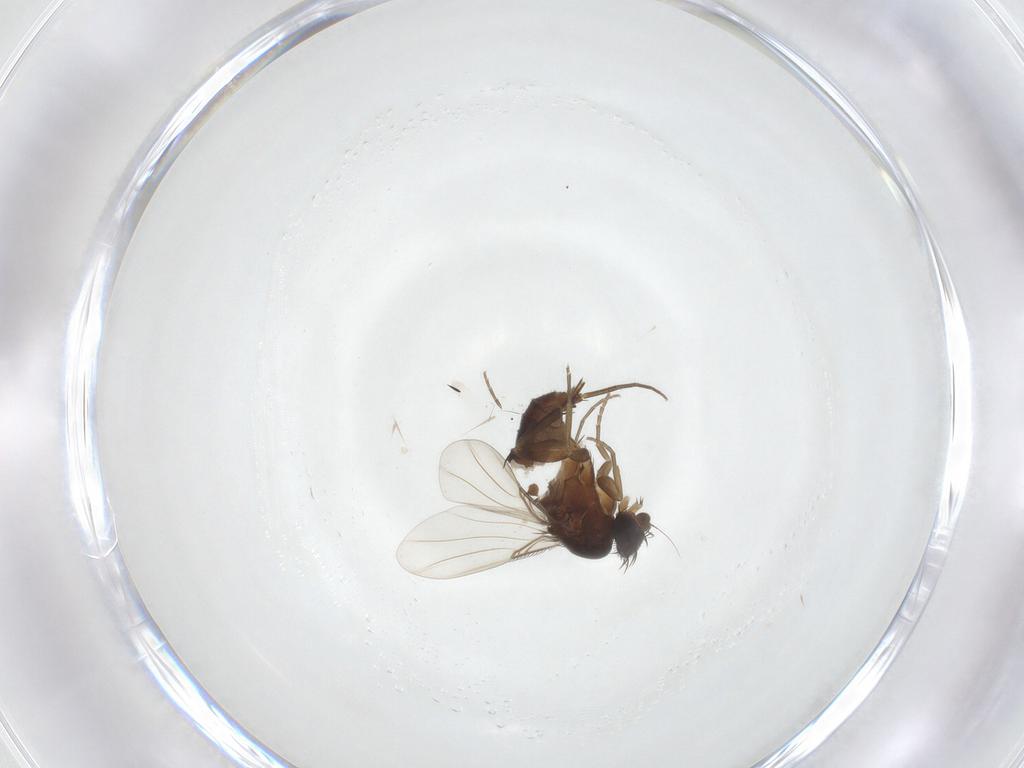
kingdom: Animalia
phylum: Arthropoda
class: Insecta
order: Diptera
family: Phoridae
